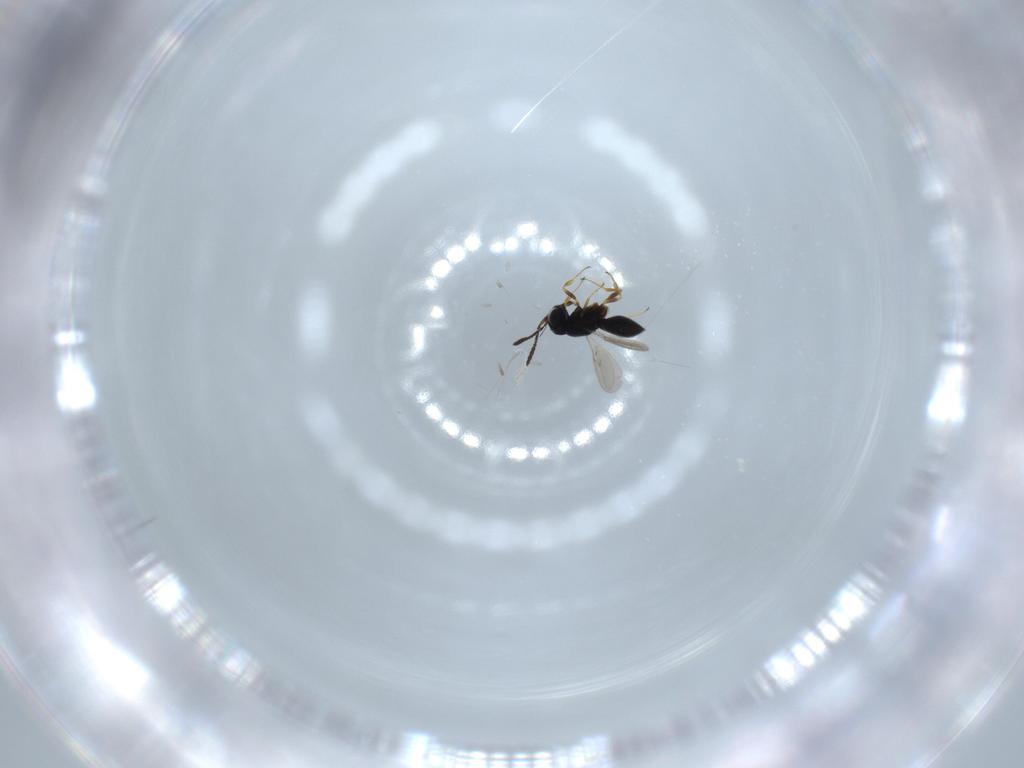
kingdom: Animalia
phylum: Arthropoda
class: Insecta
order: Hymenoptera
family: Scelionidae
